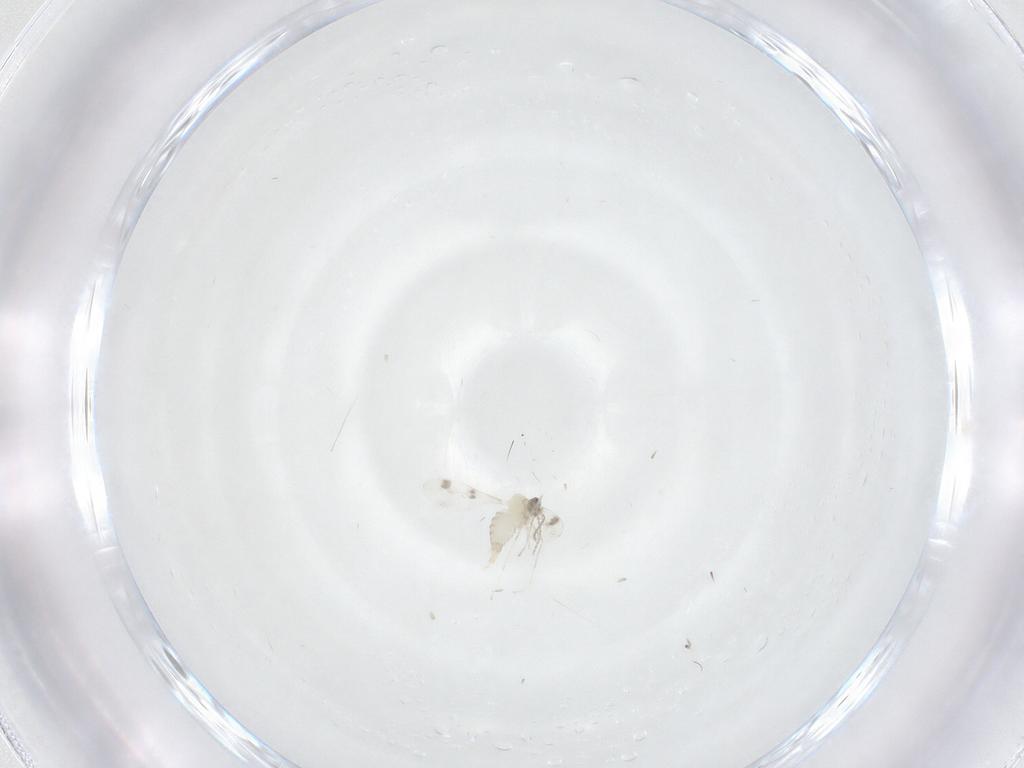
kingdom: Animalia
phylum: Arthropoda
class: Insecta
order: Diptera
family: Cecidomyiidae
